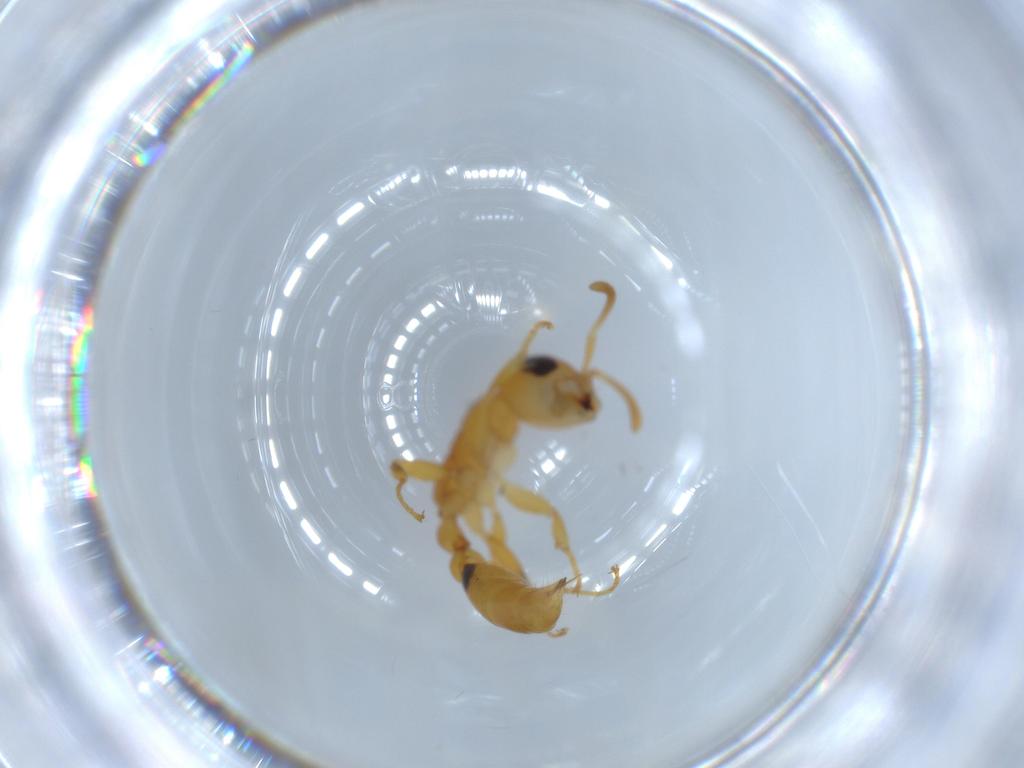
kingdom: Animalia
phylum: Arthropoda
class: Insecta
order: Hymenoptera
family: Formicidae
